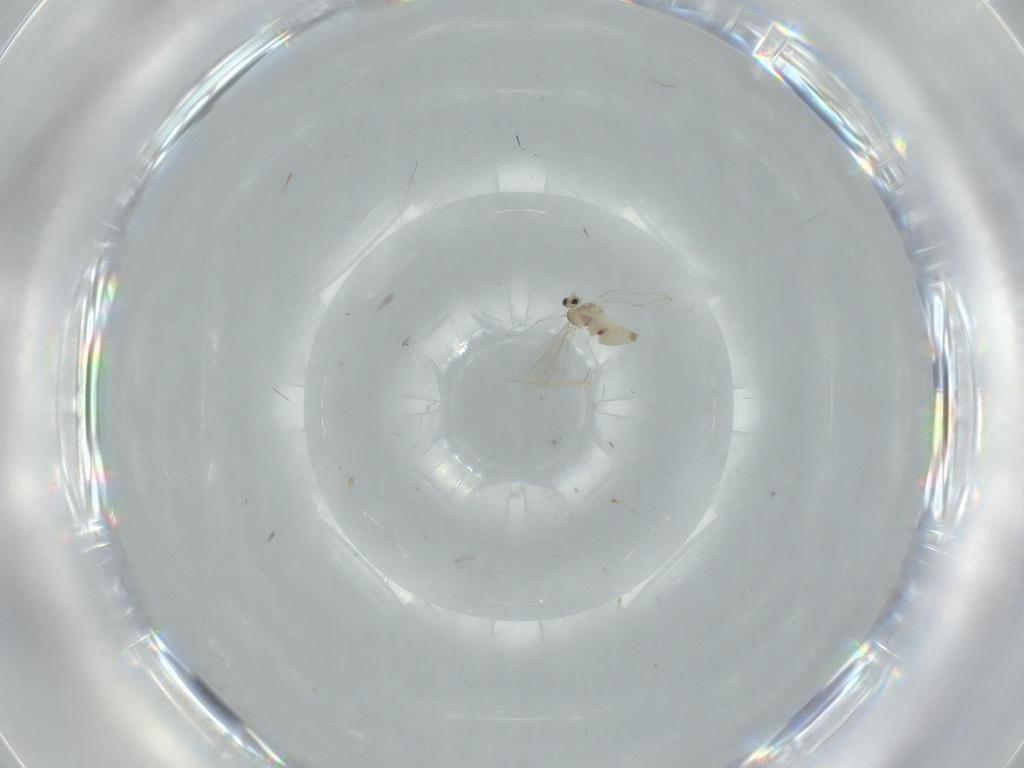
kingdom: Animalia
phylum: Arthropoda
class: Insecta
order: Diptera
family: Cecidomyiidae
